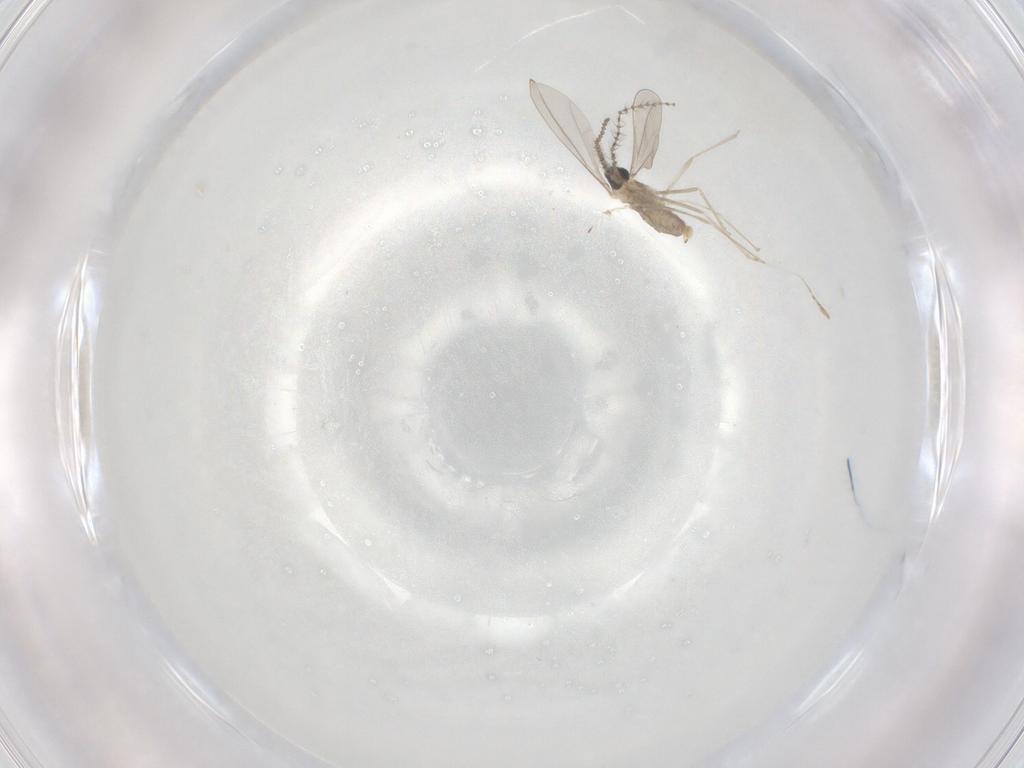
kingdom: Animalia
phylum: Arthropoda
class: Insecta
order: Diptera
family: Cecidomyiidae
